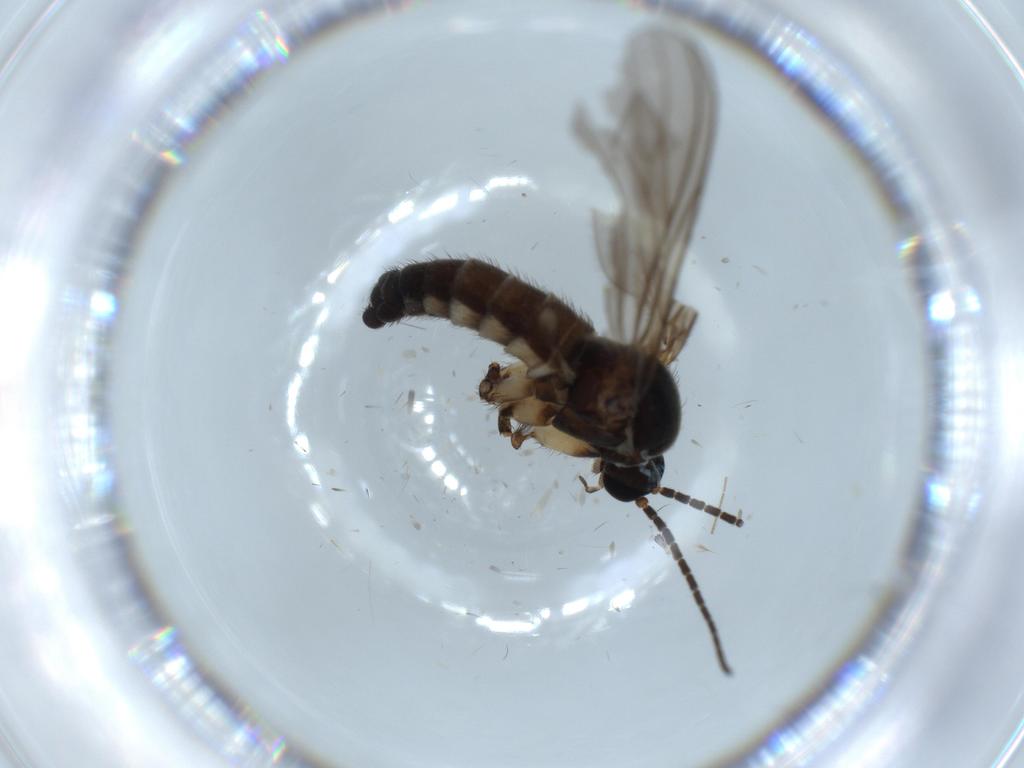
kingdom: Animalia
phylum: Arthropoda
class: Insecta
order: Diptera
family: Sciaridae
